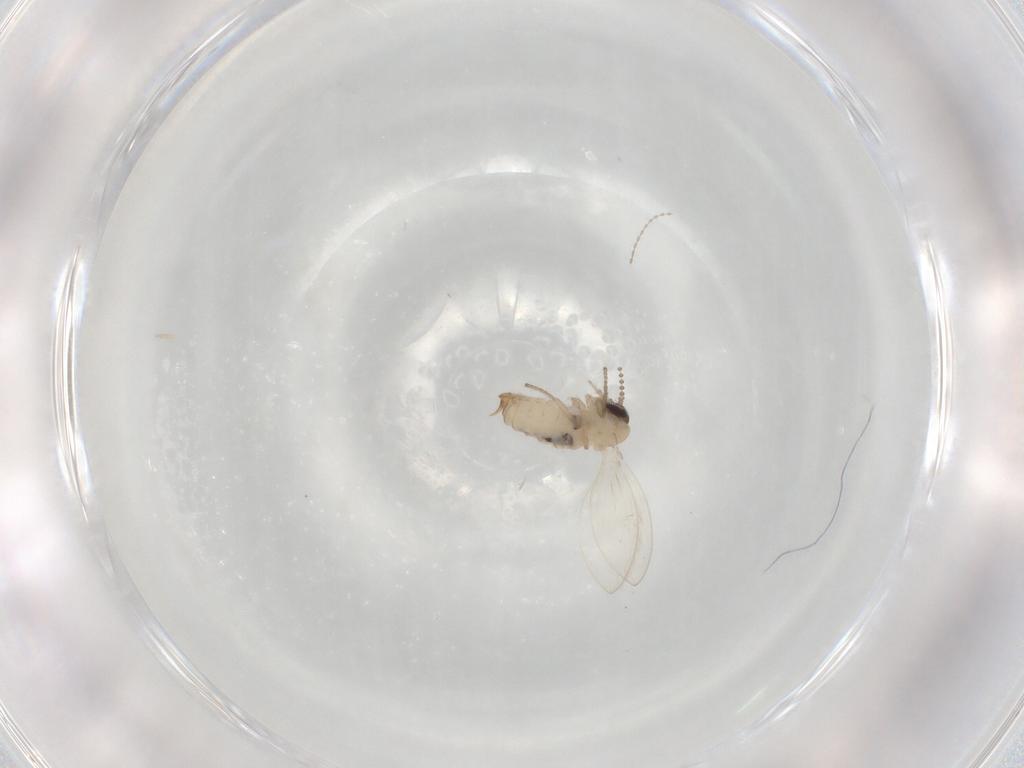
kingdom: Animalia
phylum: Arthropoda
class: Insecta
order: Diptera
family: Psychodidae
